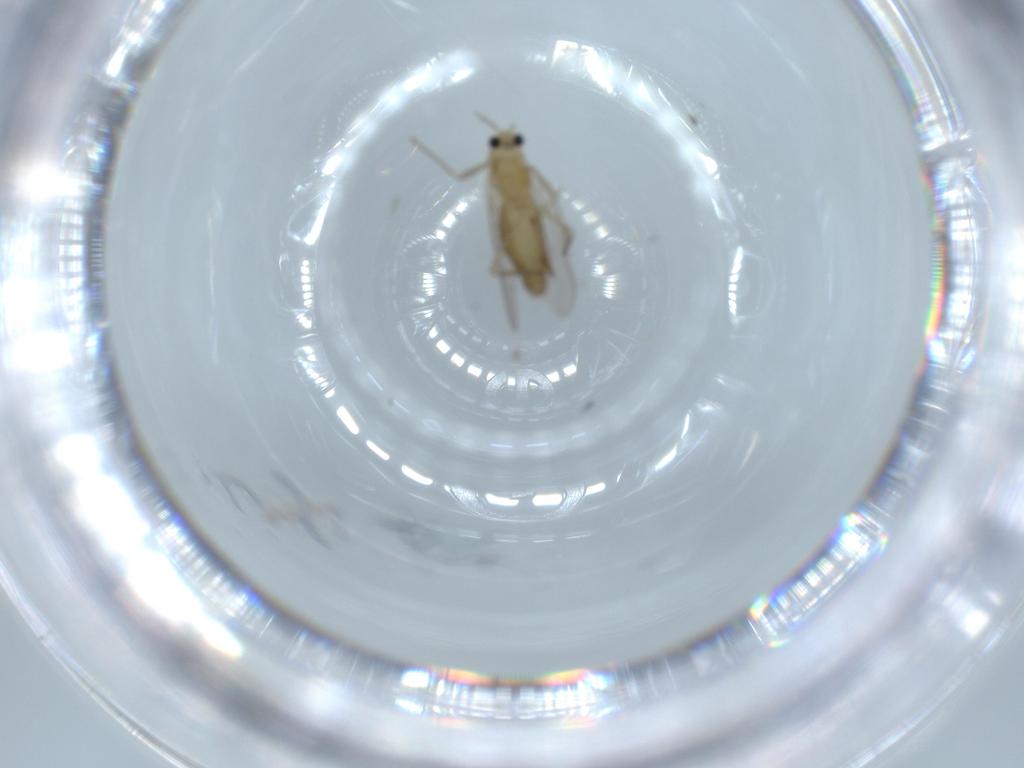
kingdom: Animalia
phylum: Arthropoda
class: Insecta
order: Diptera
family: Chironomidae
